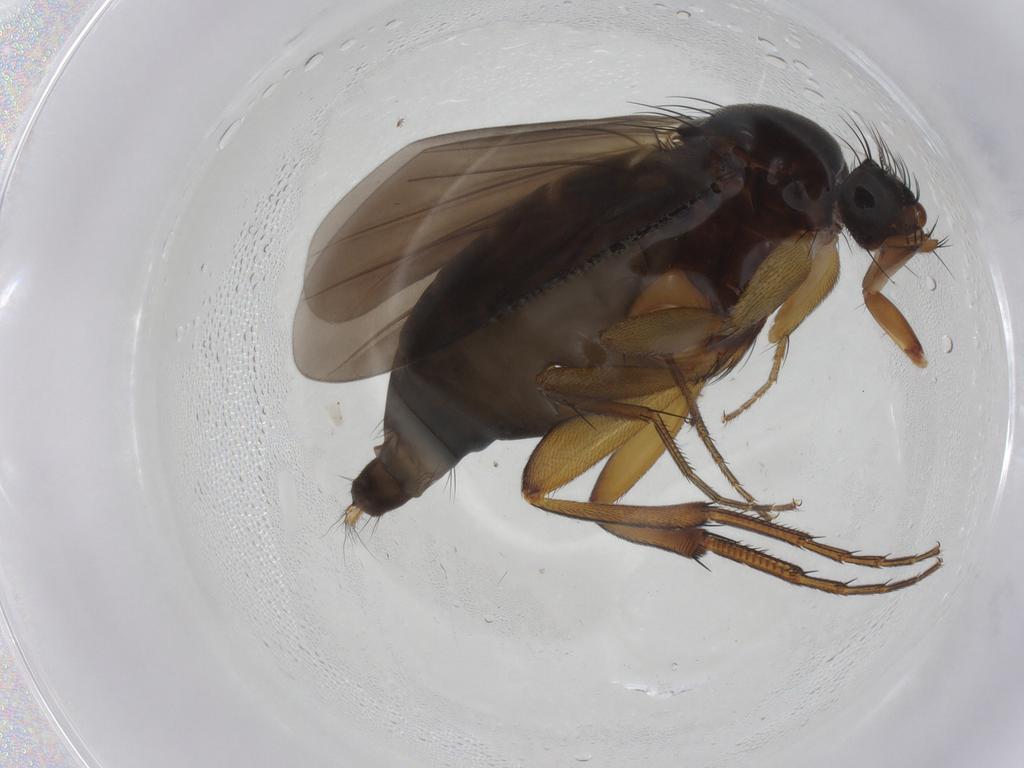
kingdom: Animalia
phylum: Arthropoda
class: Insecta
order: Diptera
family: Phoridae
